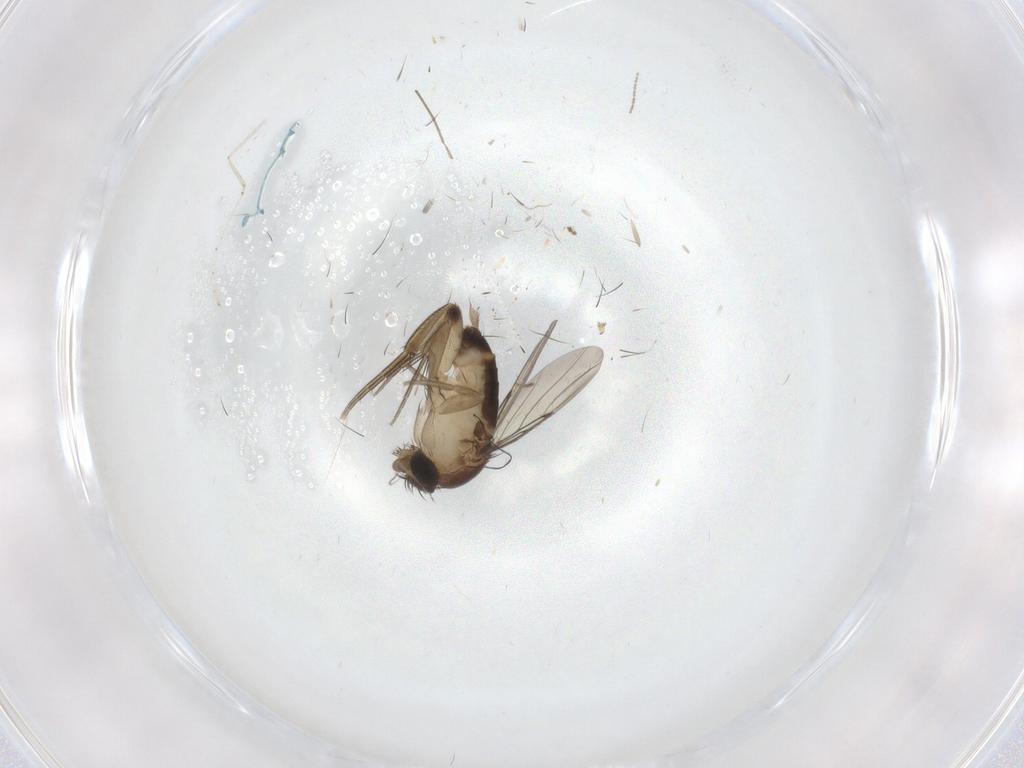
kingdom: Animalia
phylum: Arthropoda
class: Insecta
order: Diptera
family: Cecidomyiidae
